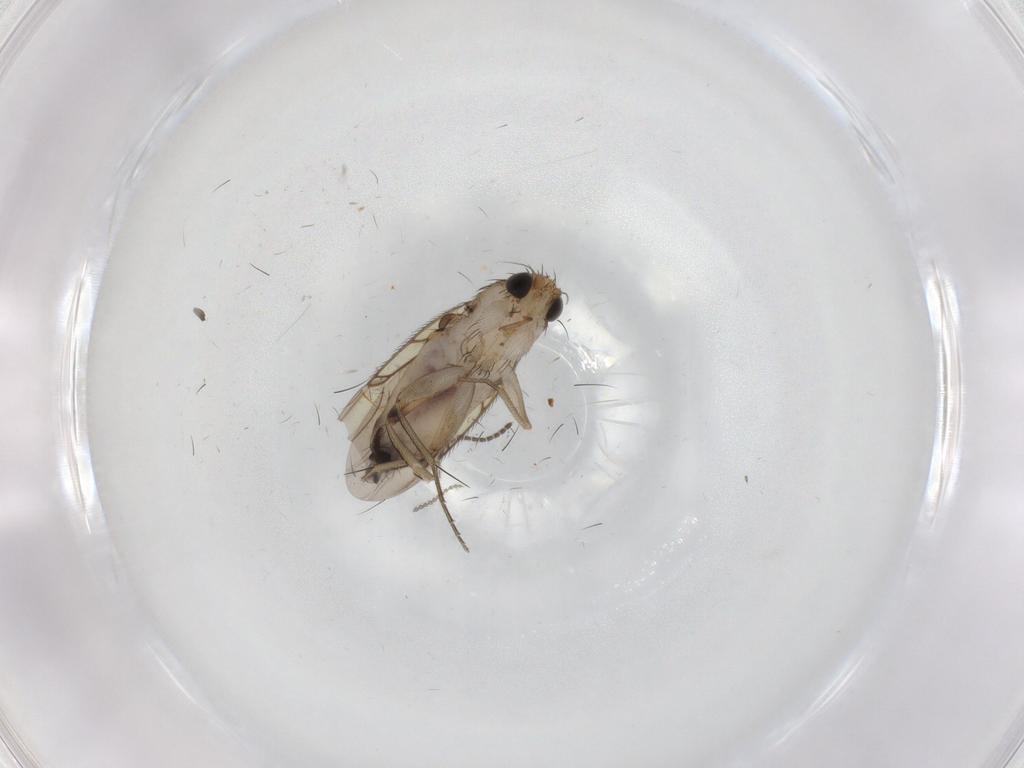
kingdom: Animalia
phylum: Arthropoda
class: Insecta
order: Diptera
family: Phoridae
